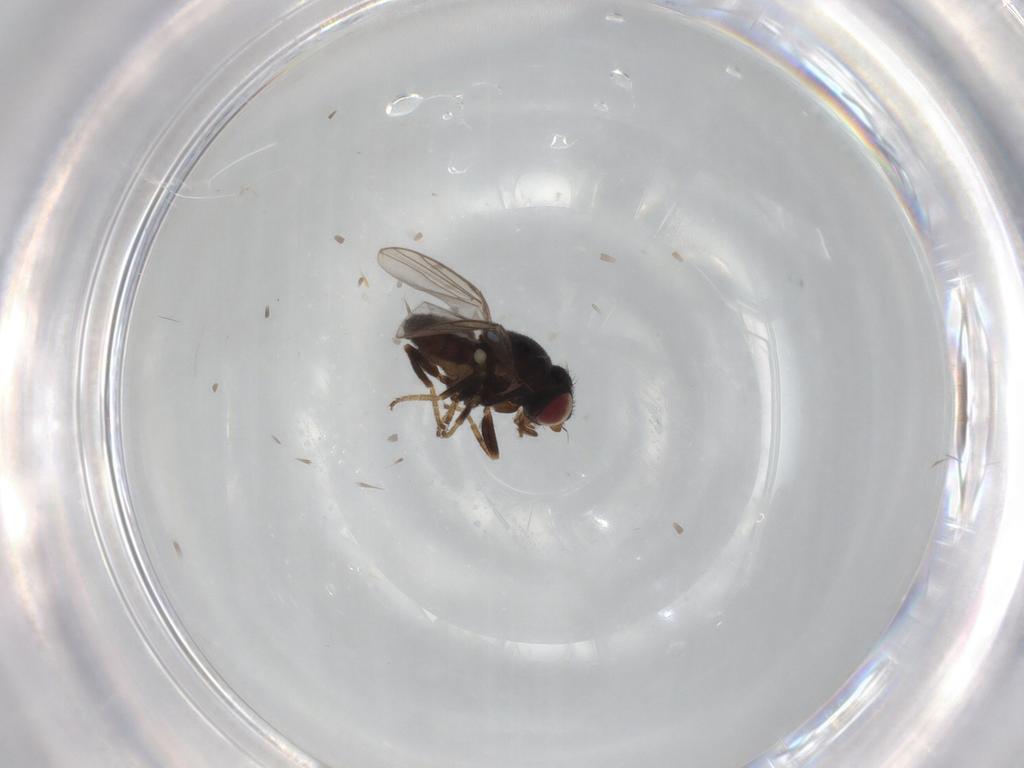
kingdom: Animalia
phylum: Arthropoda
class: Insecta
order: Diptera
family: Chloropidae
